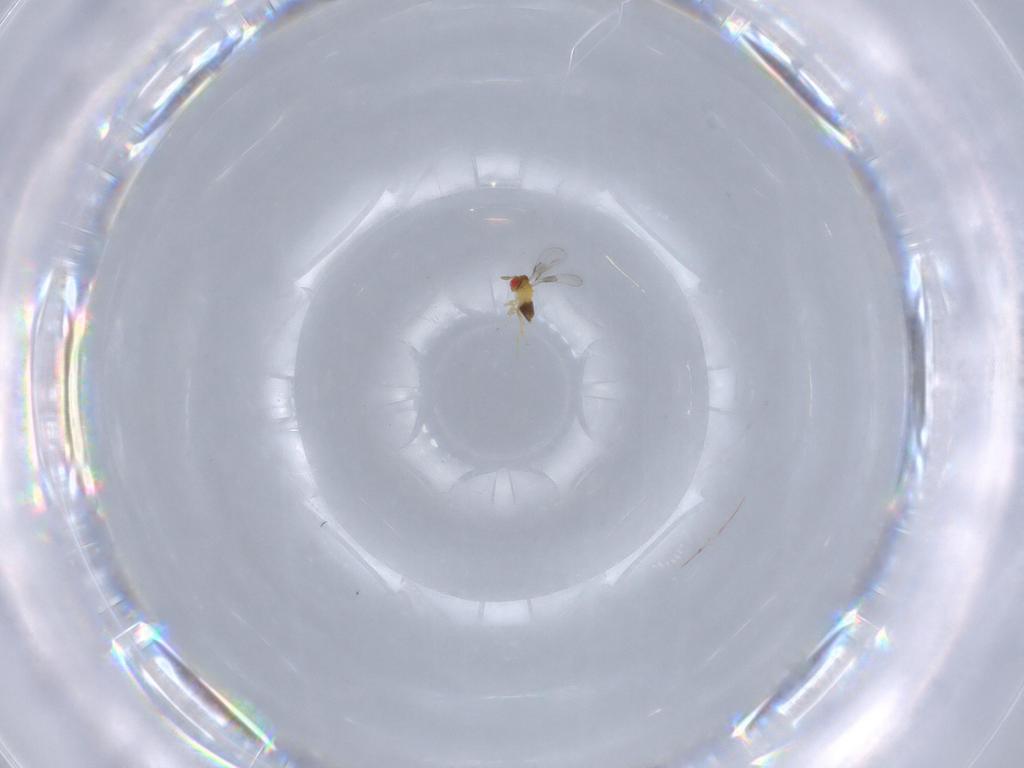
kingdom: Animalia
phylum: Arthropoda
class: Insecta
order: Hymenoptera
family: Trichogrammatidae
